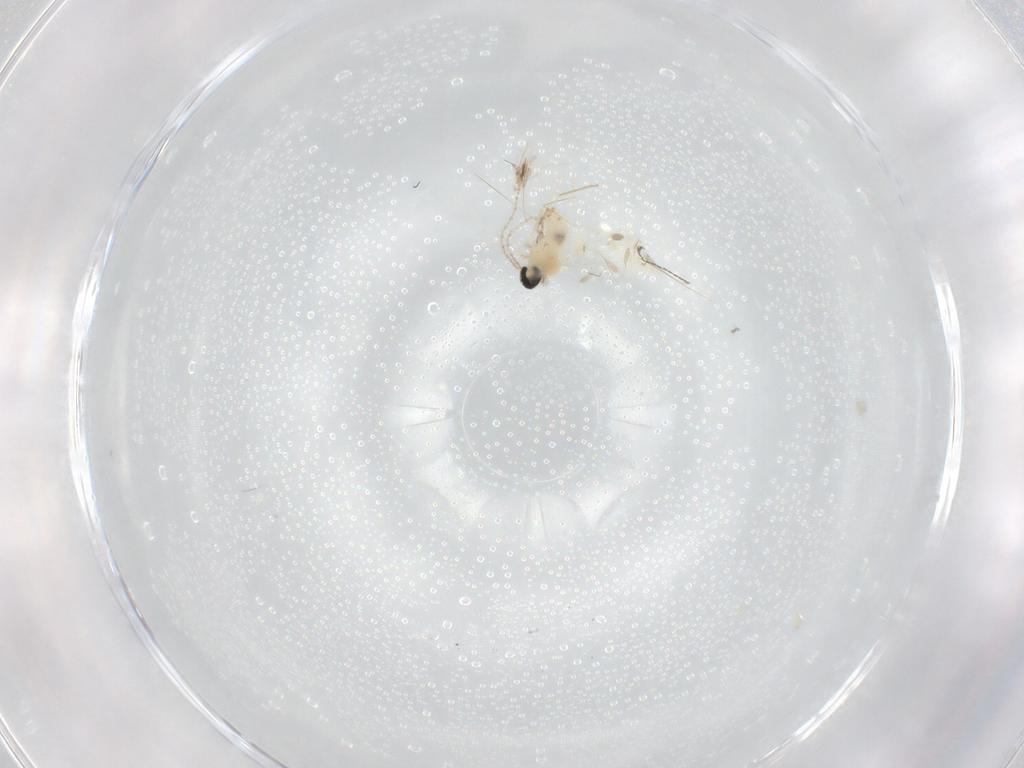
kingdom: Animalia
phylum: Arthropoda
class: Insecta
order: Diptera
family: Cecidomyiidae
